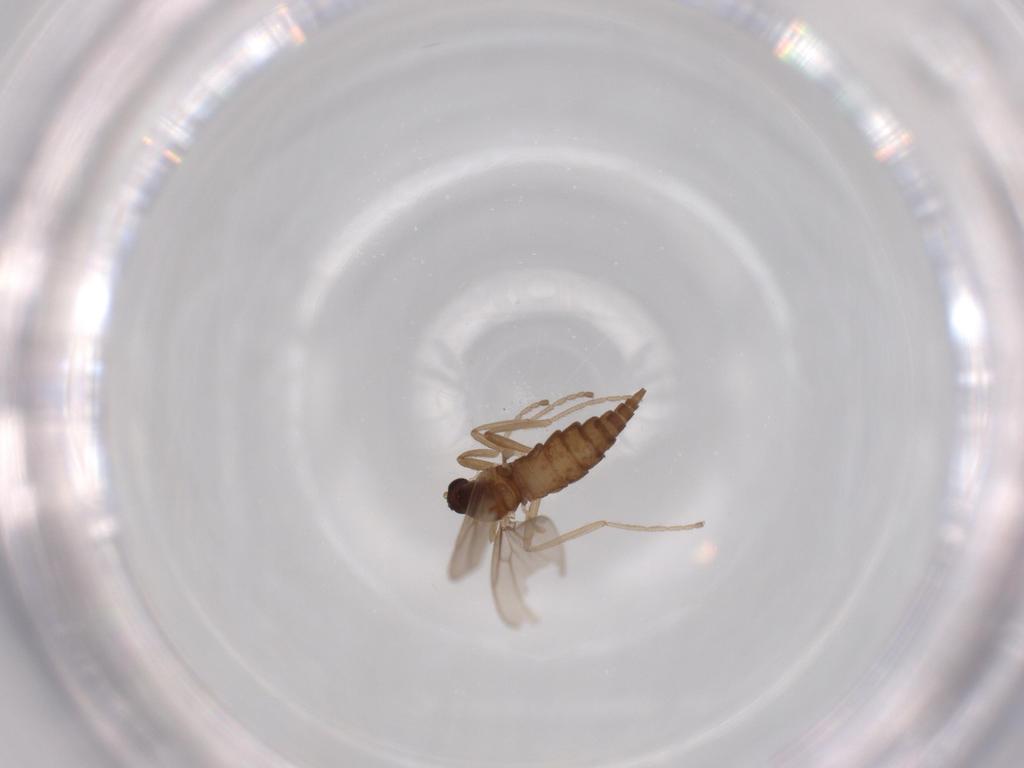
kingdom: Animalia
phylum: Arthropoda
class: Insecta
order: Diptera
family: Cecidomyiidae
